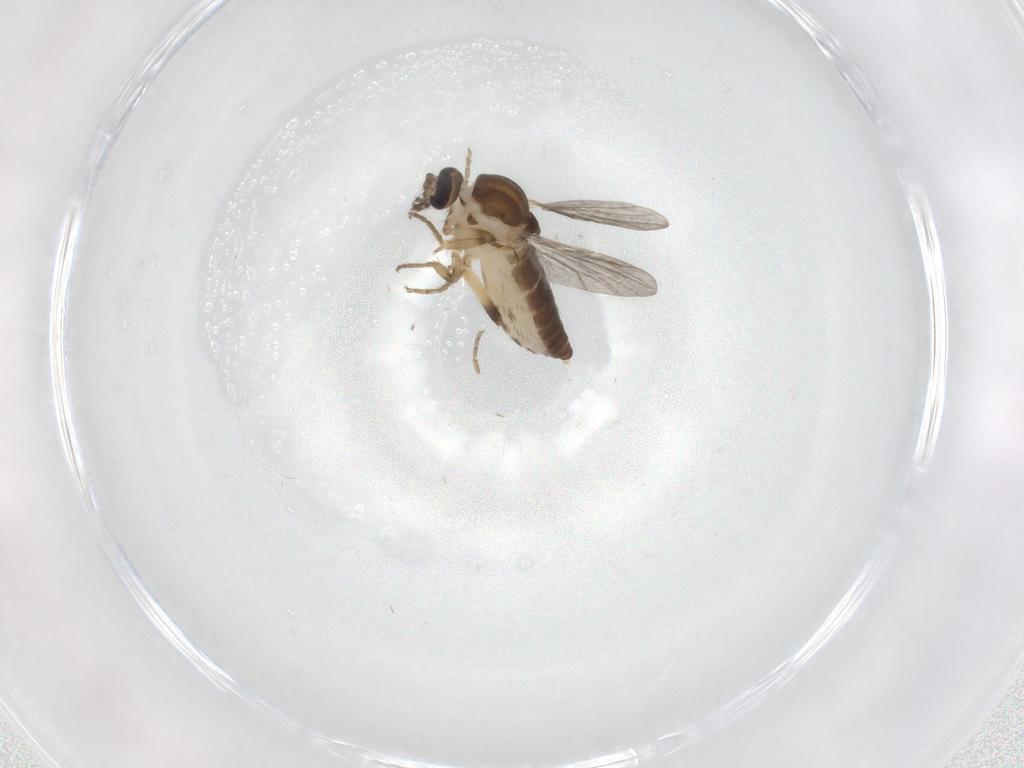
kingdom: Animalia
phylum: Arthropoda
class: Insecta
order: Diptera
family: Ceratopogonidae
